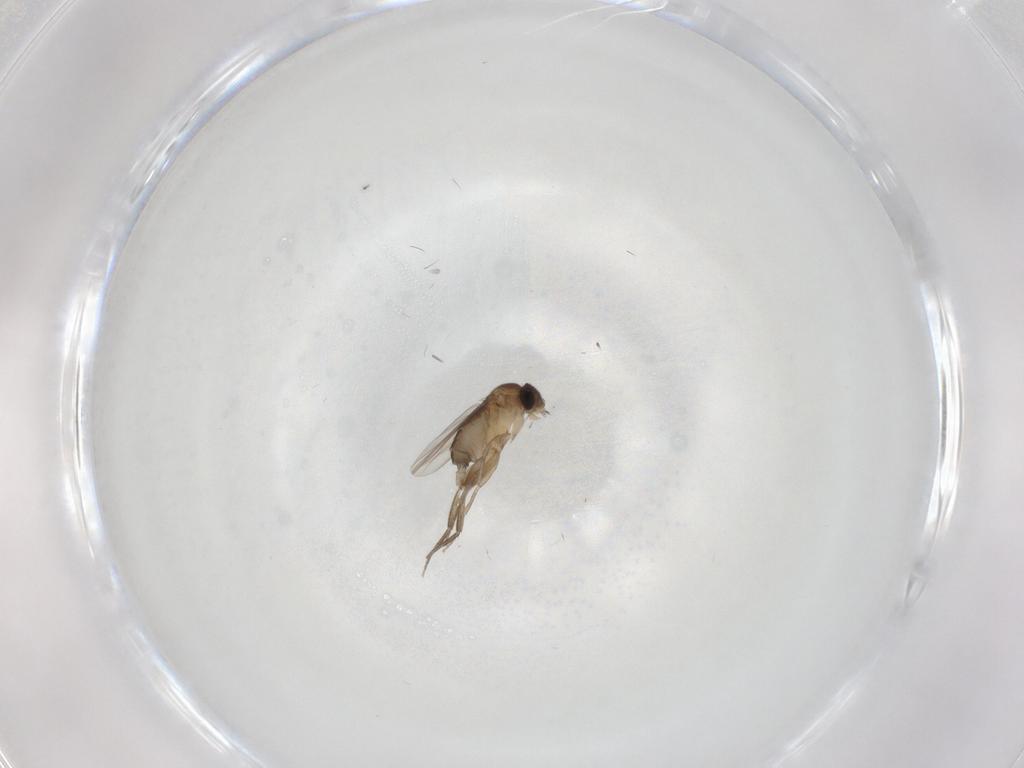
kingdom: Animalia
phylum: Arthropoda
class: Insecta
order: Diptera
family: Phoridae
